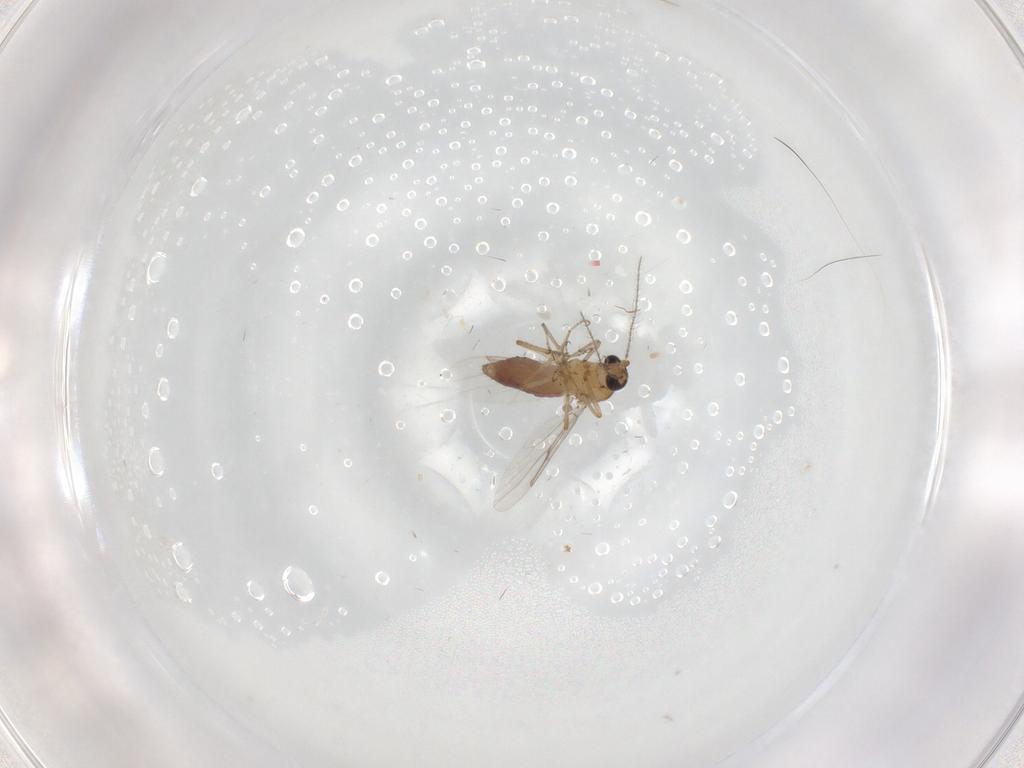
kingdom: Animalia
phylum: Arthropoda
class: Insecta
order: Diptera
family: Ceratopogonidae
